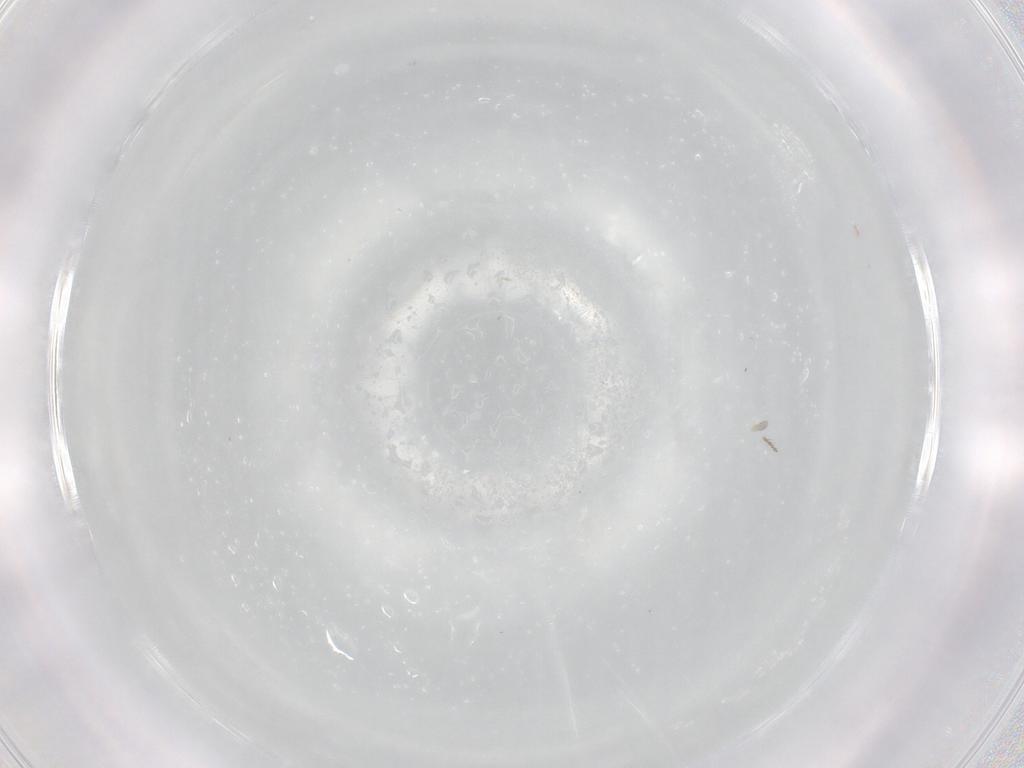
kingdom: Animalia
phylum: Arthropoda
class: Insecta
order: Diptera
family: Cecidomyiidae
